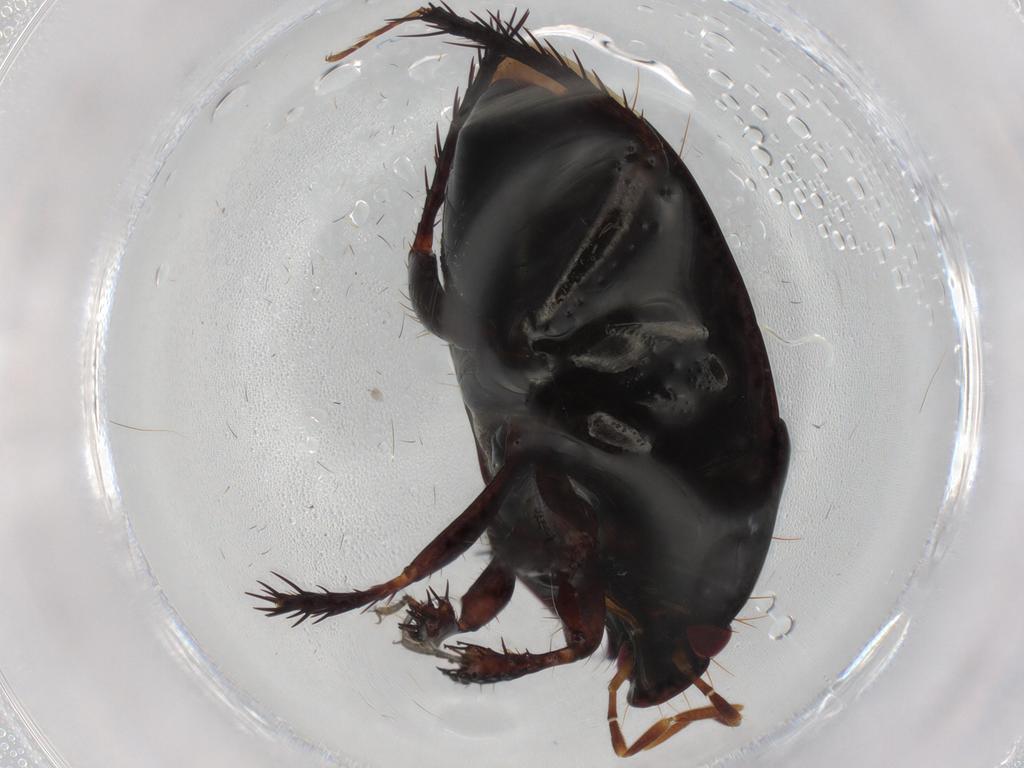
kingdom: Animalia
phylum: Arthropoda
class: Insecta
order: Hemiptera
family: Cydnidae
